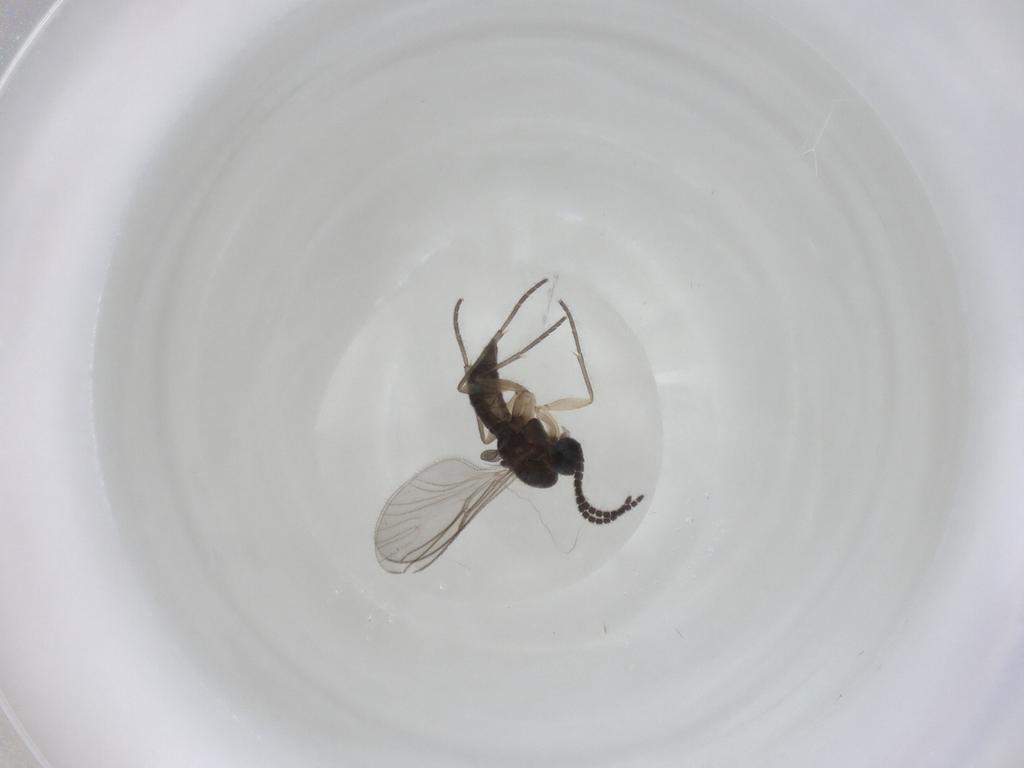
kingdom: Animalia
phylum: Arthropoda
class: Insecta
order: Diptera
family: Sciaridae
